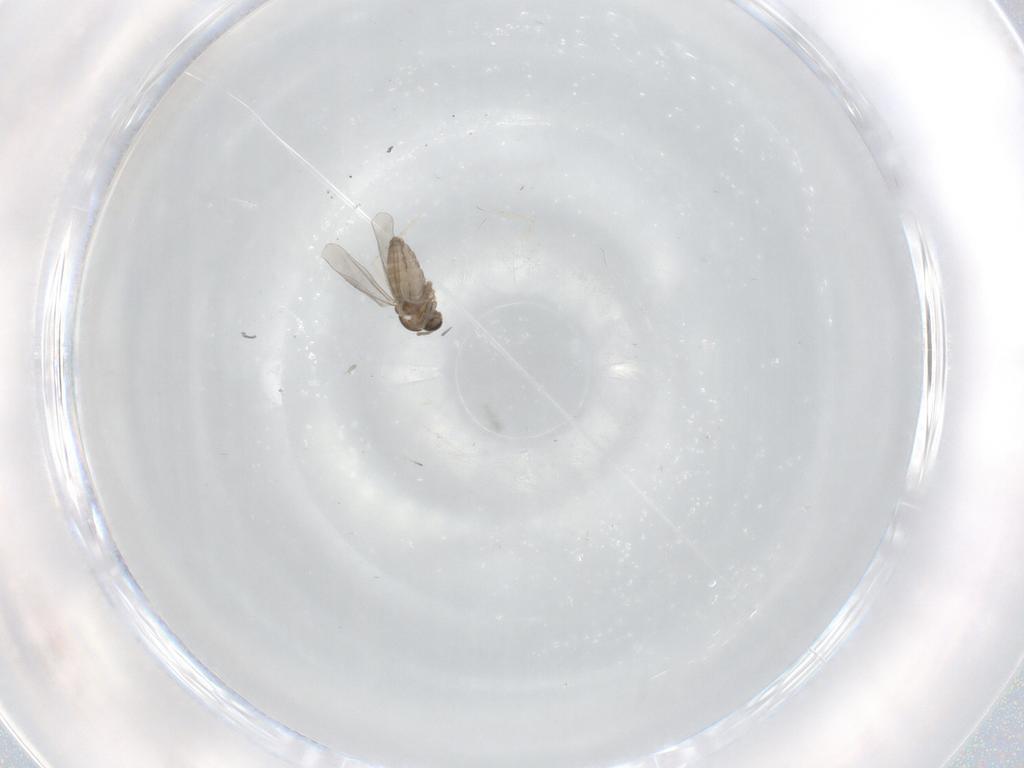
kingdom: Animalia
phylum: Arthropoda
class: Insecta
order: Diptera
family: Cecidomyiidae
